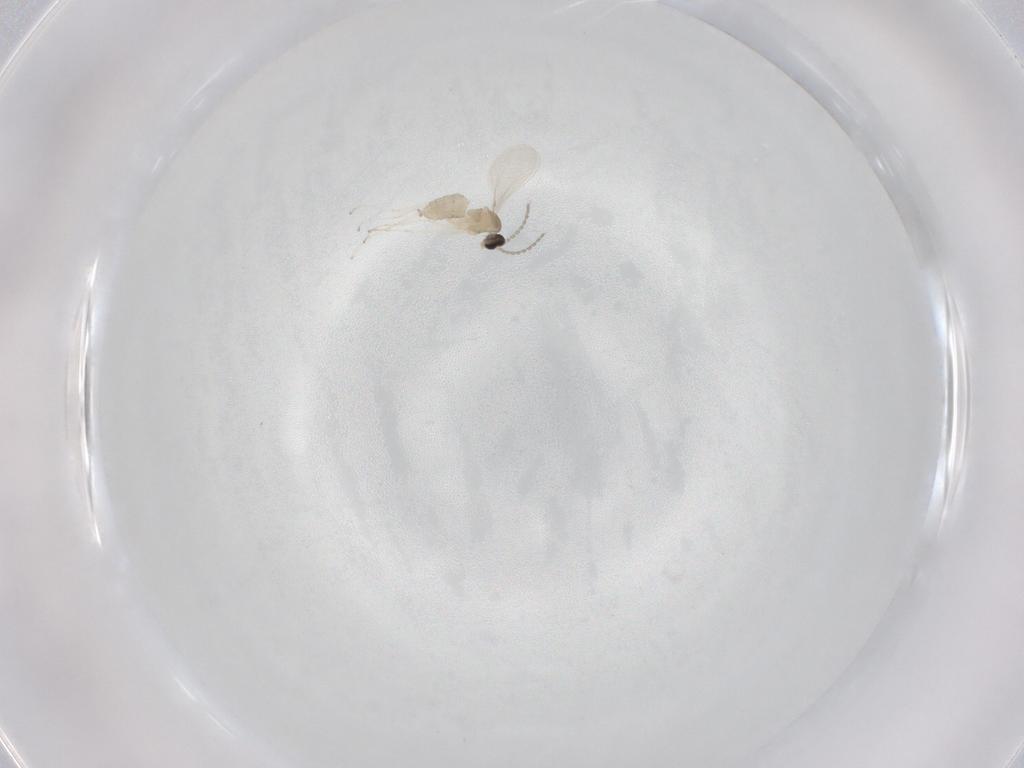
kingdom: Animalia
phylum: Arthropoda
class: Insecta
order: Diptera
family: Cecidomyiidae
